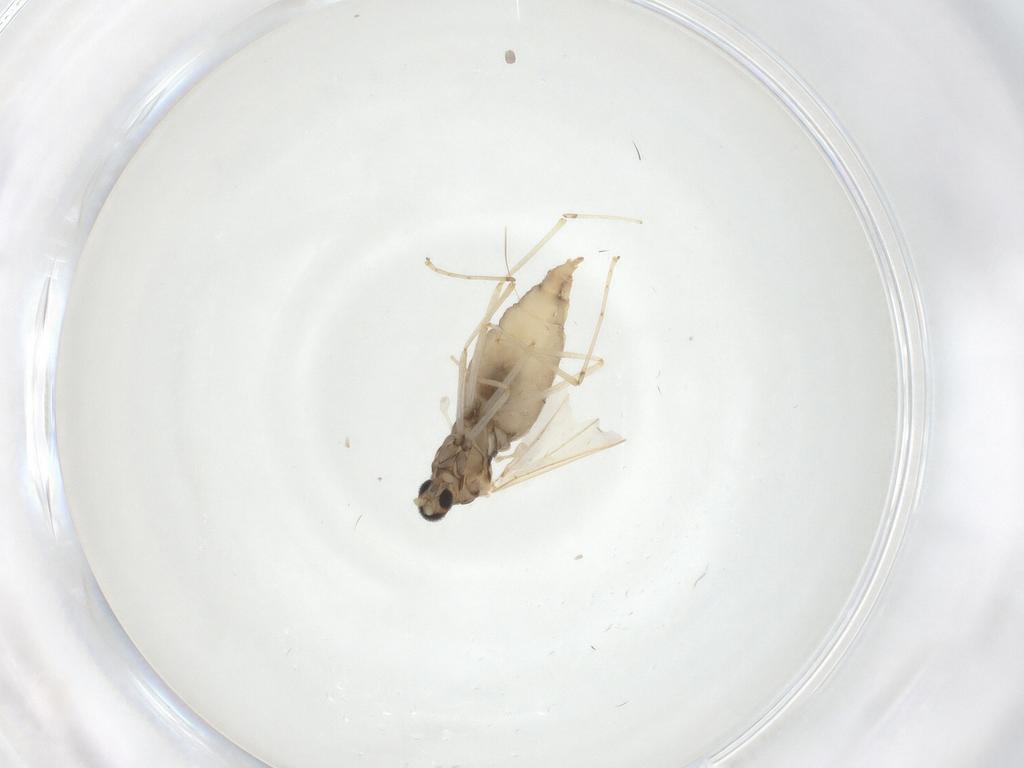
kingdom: Animalia
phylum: Arthropoda
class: Insecta
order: Diptera
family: Cecidomyiidae
